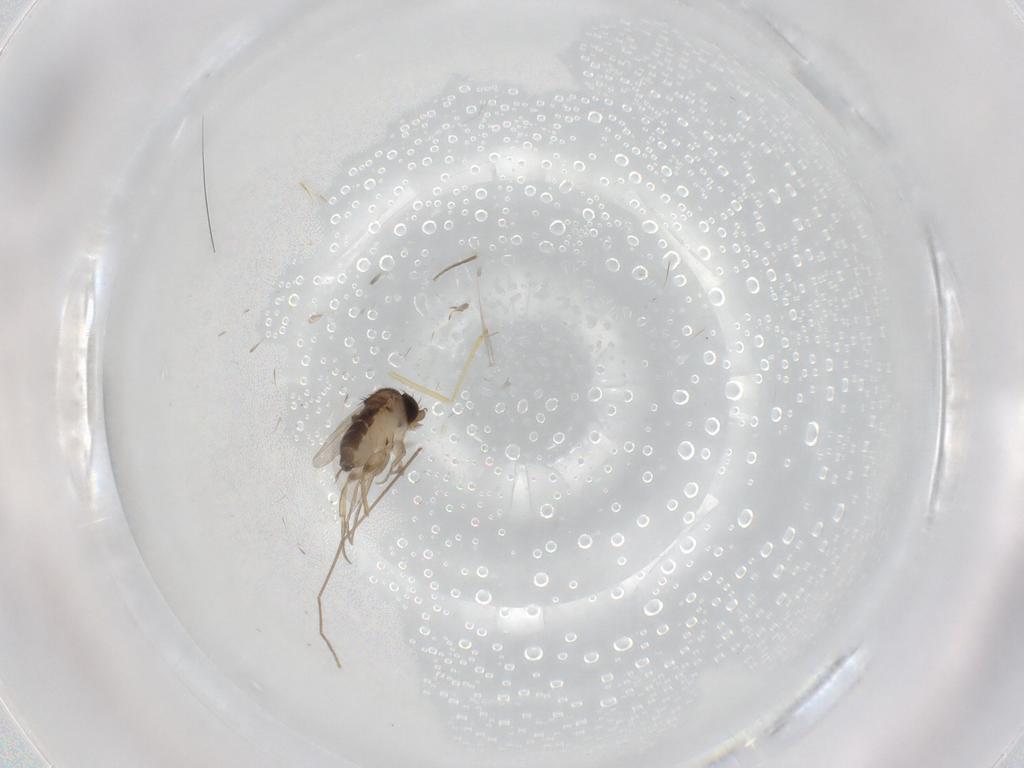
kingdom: Animalia
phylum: Arthropoda
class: Insecta
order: Diptera
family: Phoridae
